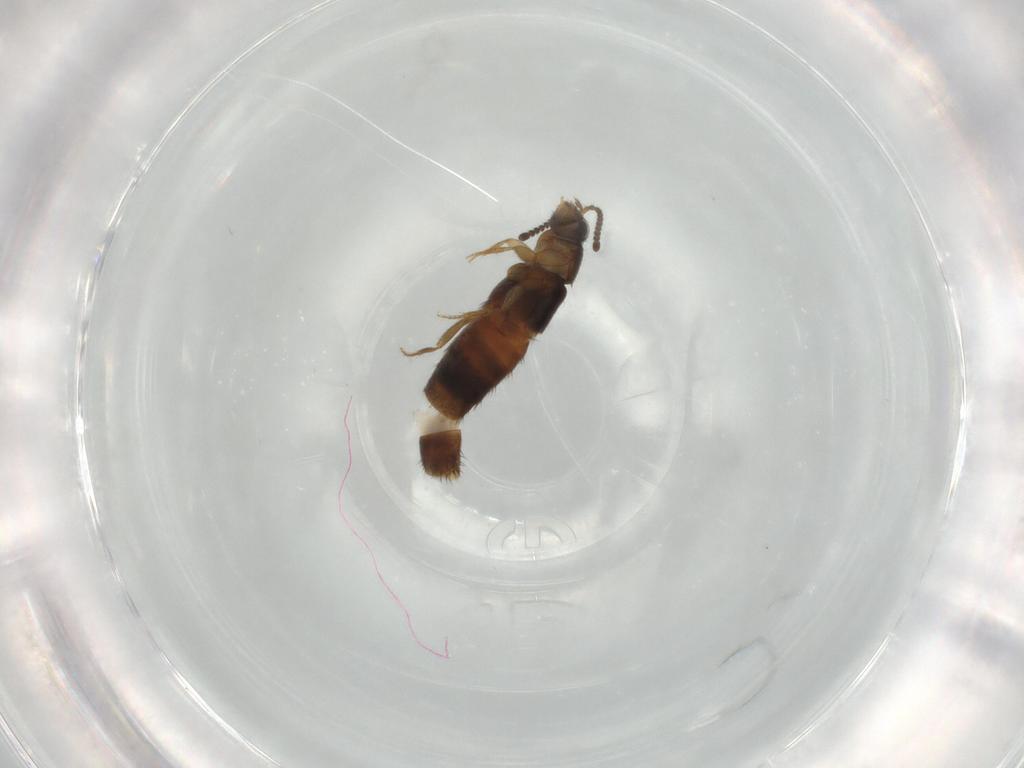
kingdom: Animalia
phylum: Arthropoda
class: Insecta
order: Coleoptera
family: Staphylinidae
